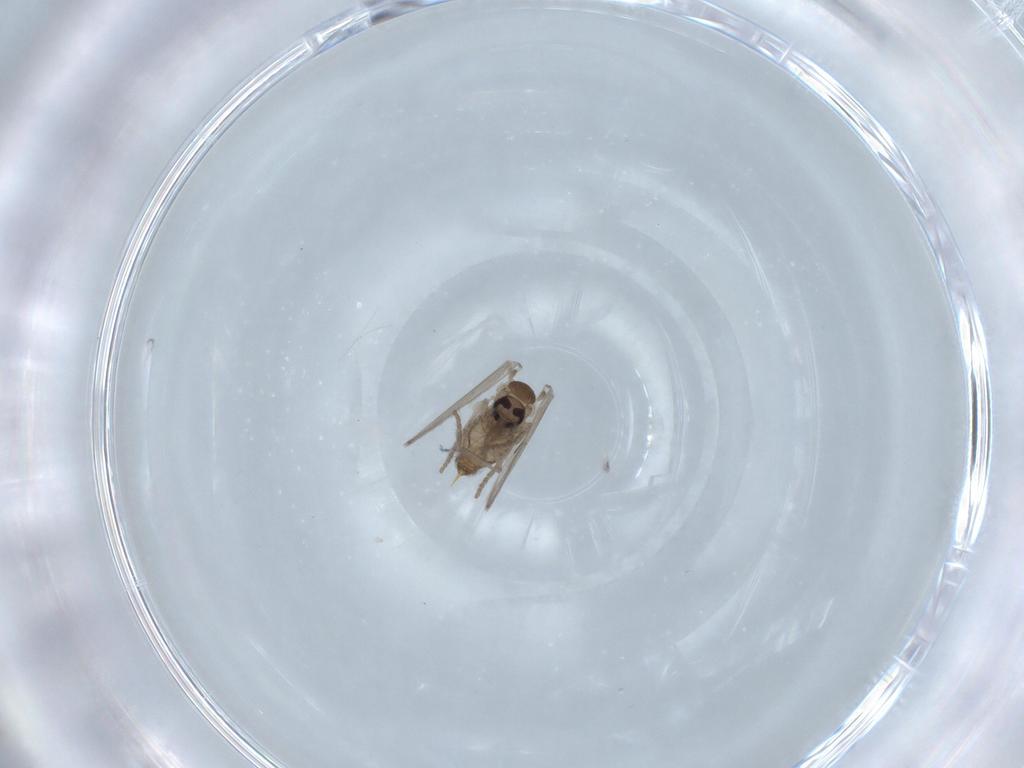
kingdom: Animalia
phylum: Arthropoda
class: Insecta
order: Diptera
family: Psychodidae
